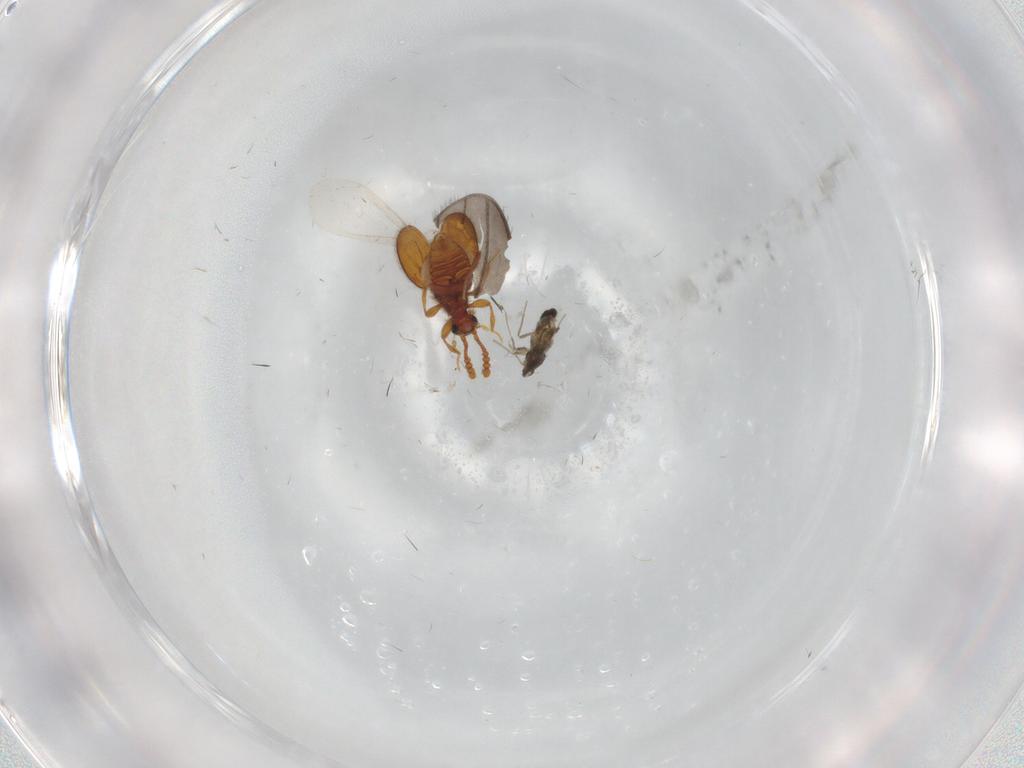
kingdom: Animalia
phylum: Arthropoda
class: Insecta
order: Diptera
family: Limoniidae
